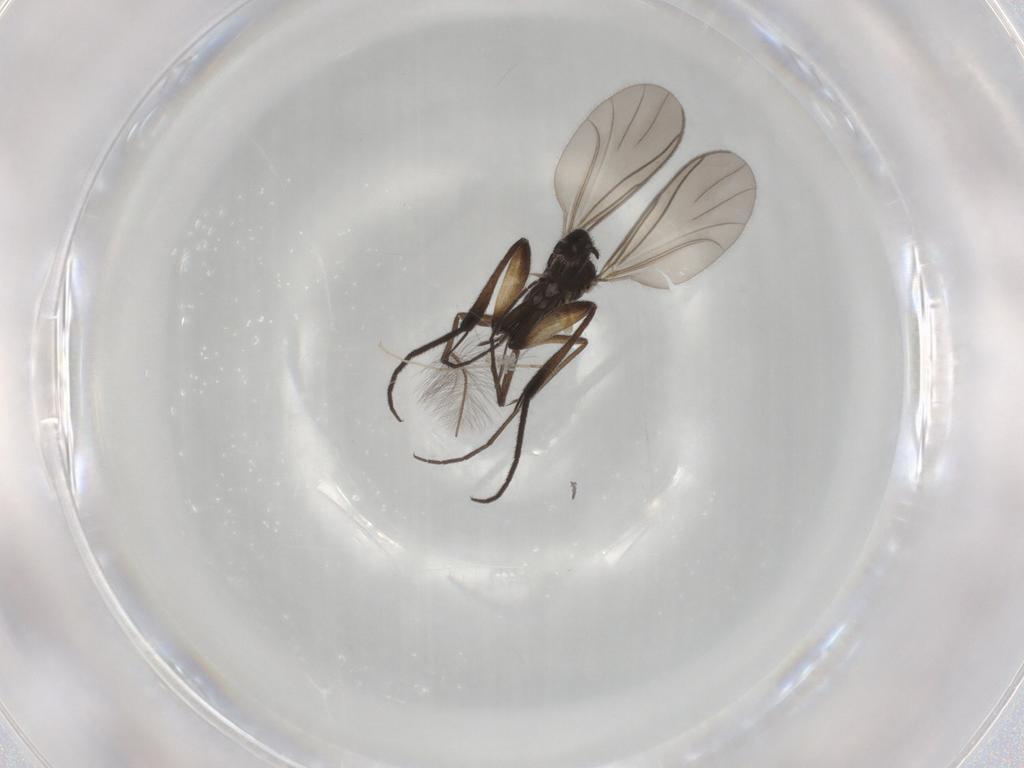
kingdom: Animalia
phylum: Arthropoda
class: Insecta
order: Diptera
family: Keroplatidae
